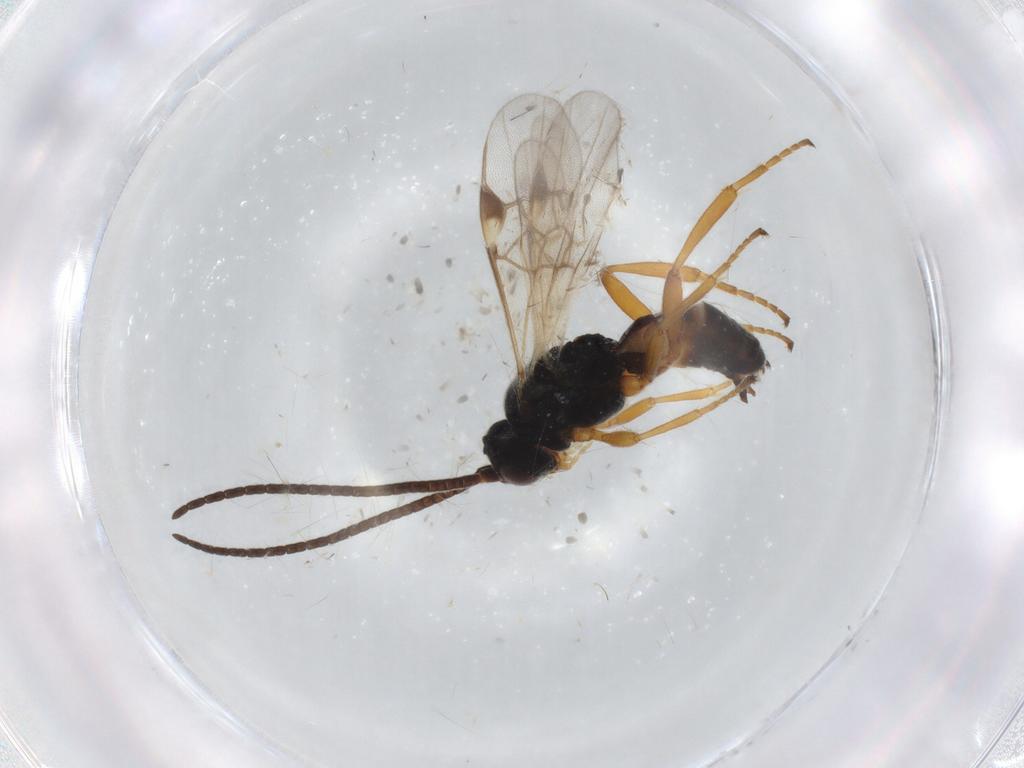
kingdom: Animalia
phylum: Arthropoda
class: Insecta
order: Hymenoptera
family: Braconidae
